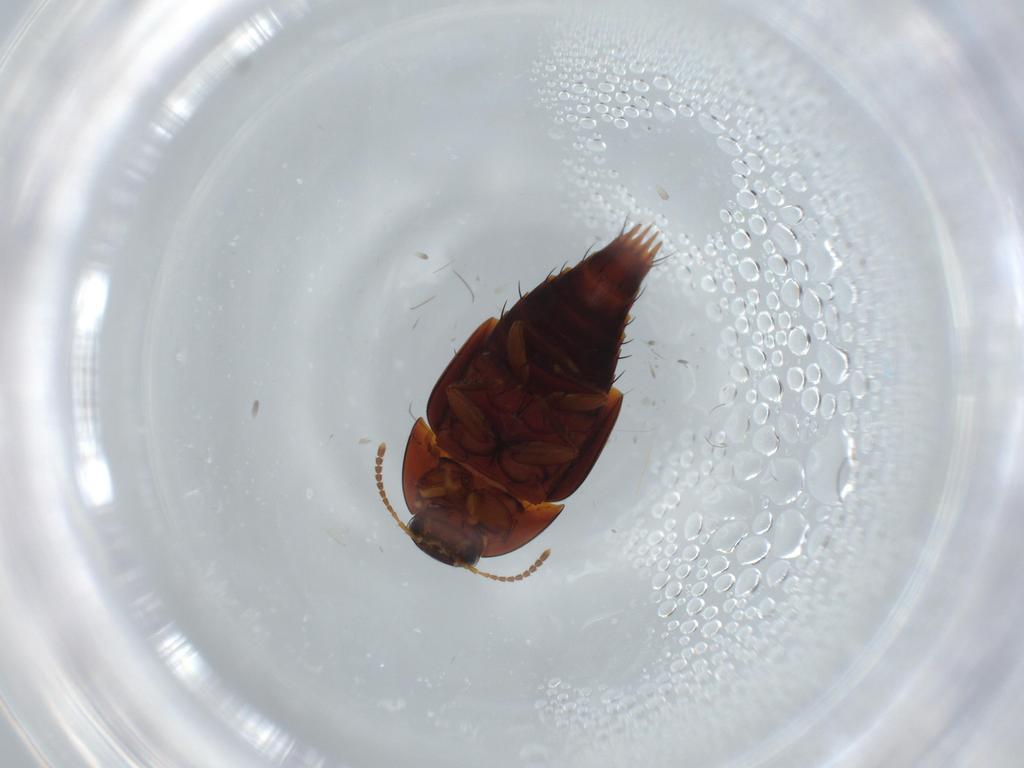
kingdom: Animalia
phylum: Arthropoda
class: Insecta
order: Coleoptera
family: Staphylinidae
